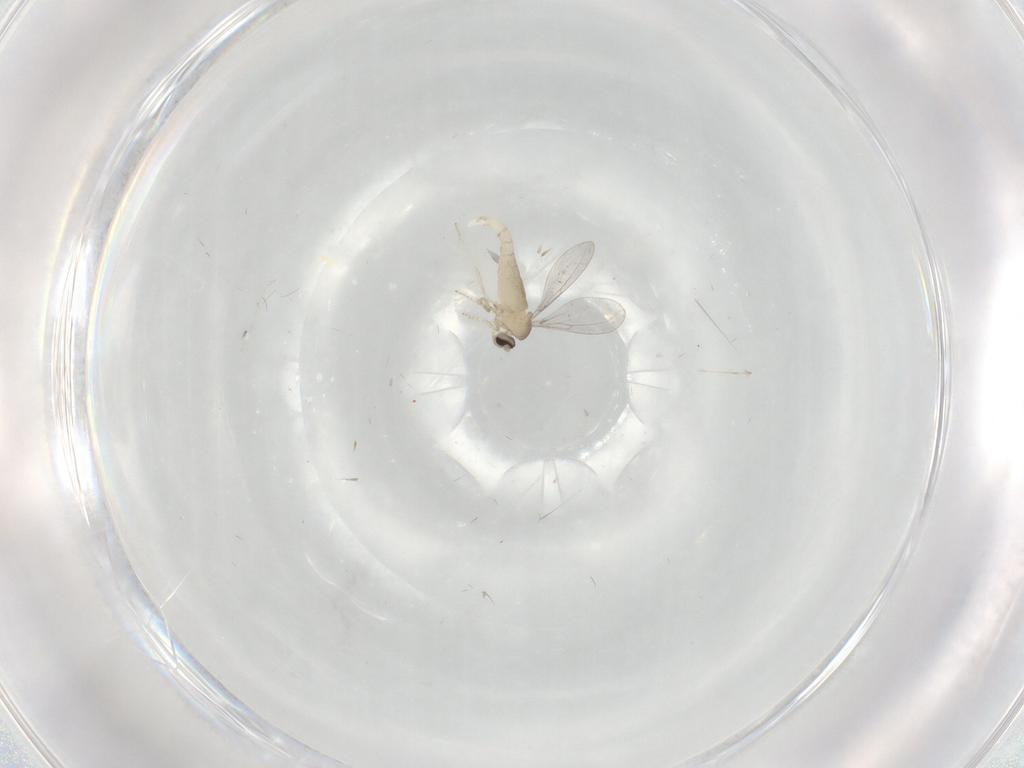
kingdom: Animalia
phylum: Arthropoda
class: Insecta
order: Diptera
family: Cecidomyiidae
